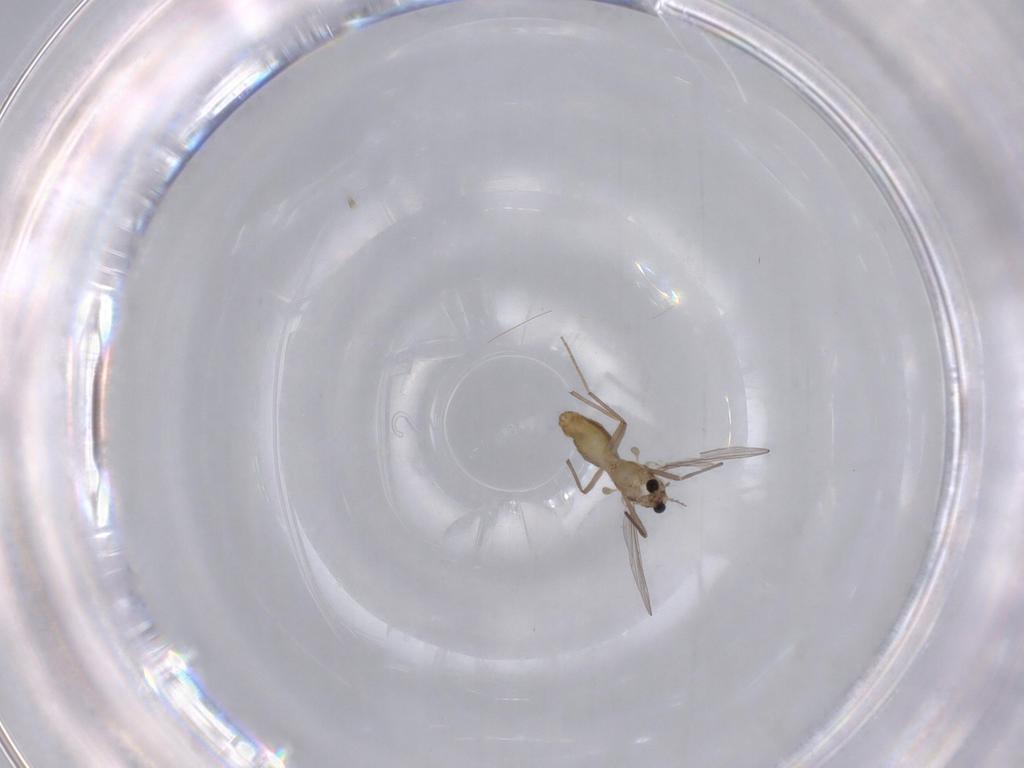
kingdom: Animalia
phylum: Arthropoda
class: Insecta
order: Diptera
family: Chironomidae
